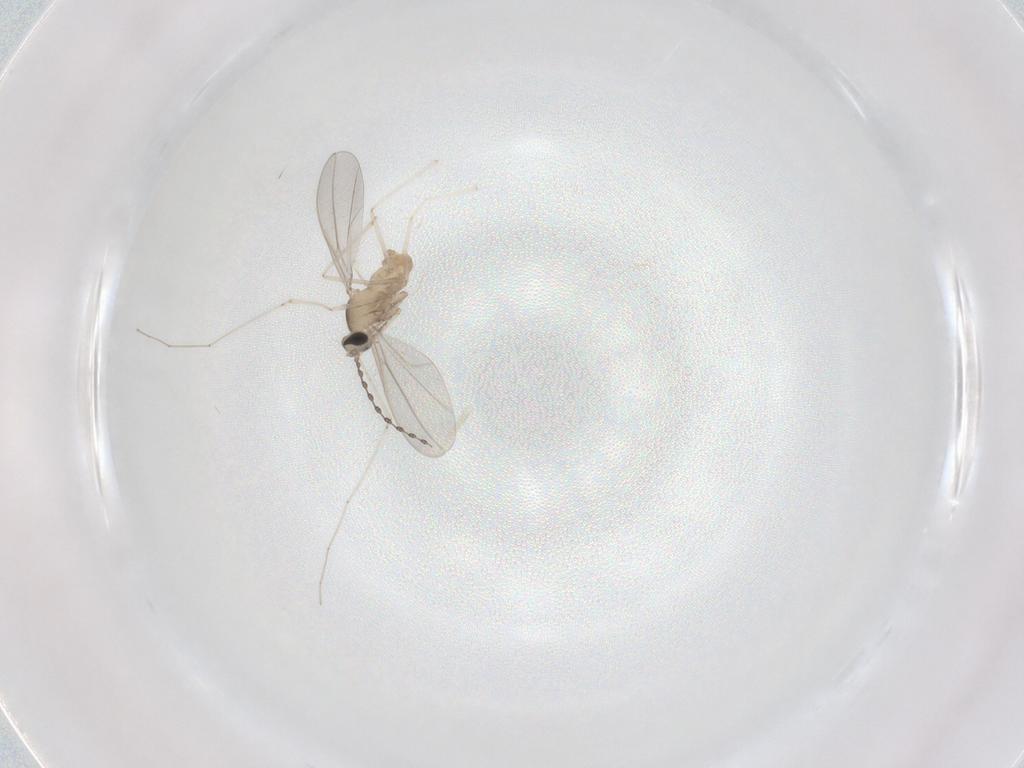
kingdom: Animalia
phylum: Arthropoda
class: Insecta
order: Diptera
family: Cecidomyiidae
